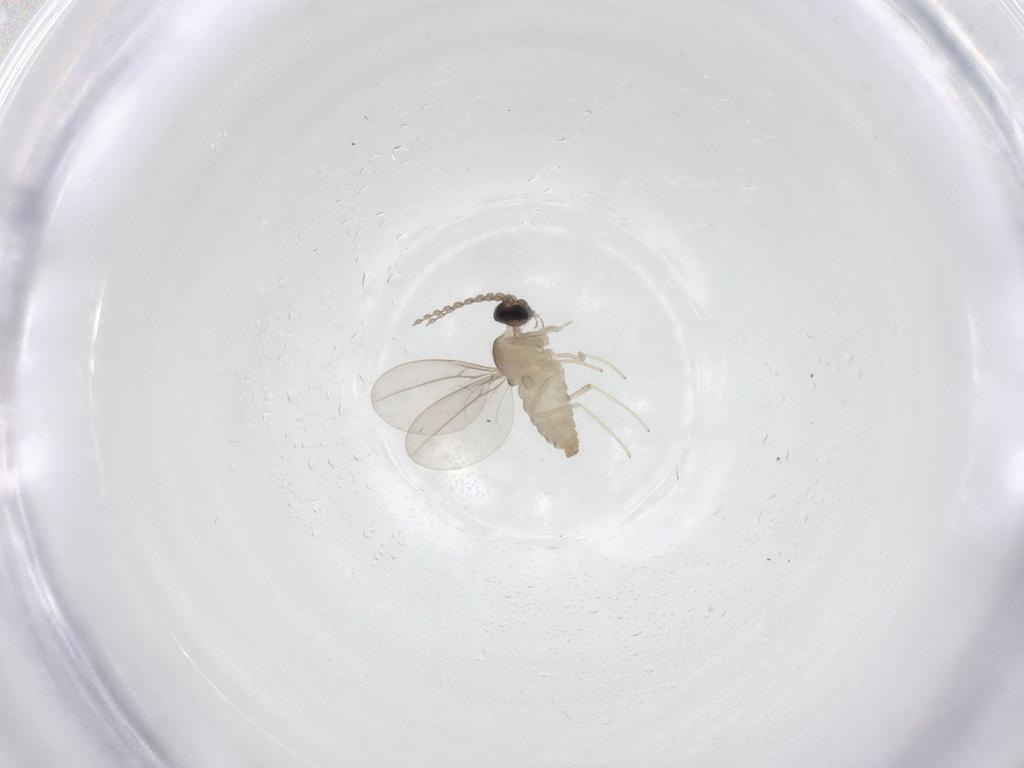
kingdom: Animalia
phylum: Arthropoda
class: Insecta
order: Diptera
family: Cecidomyiidae
